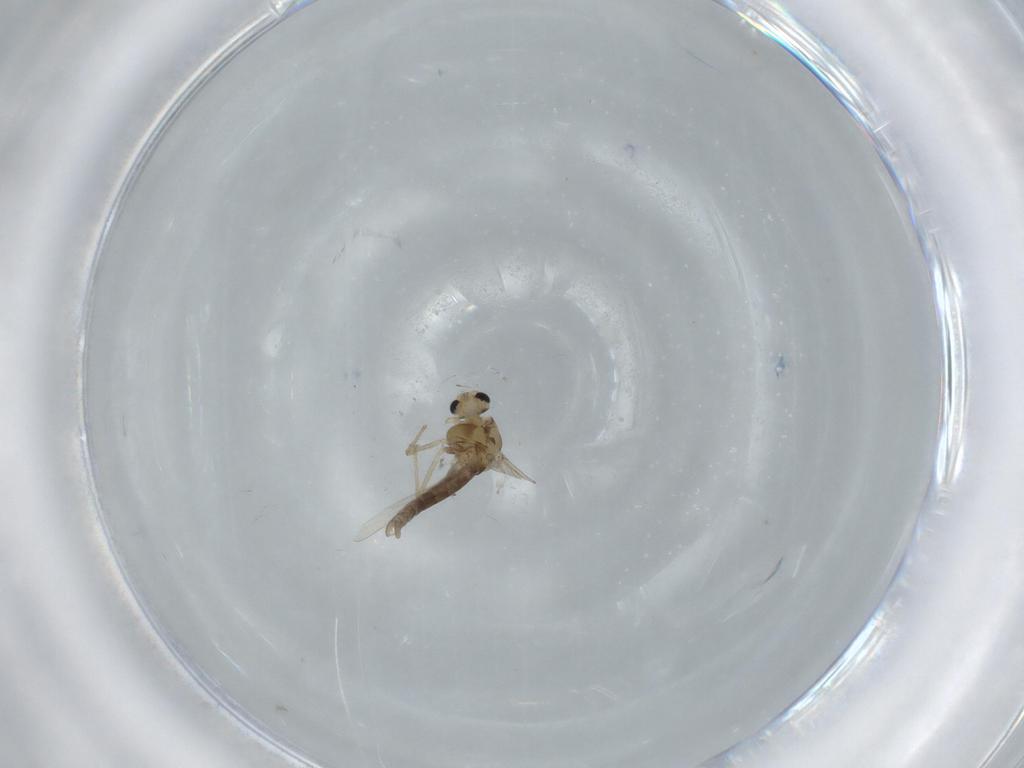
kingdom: Animalia
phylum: Arthropoda
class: Insecta
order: Diptera
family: Chironomidae
